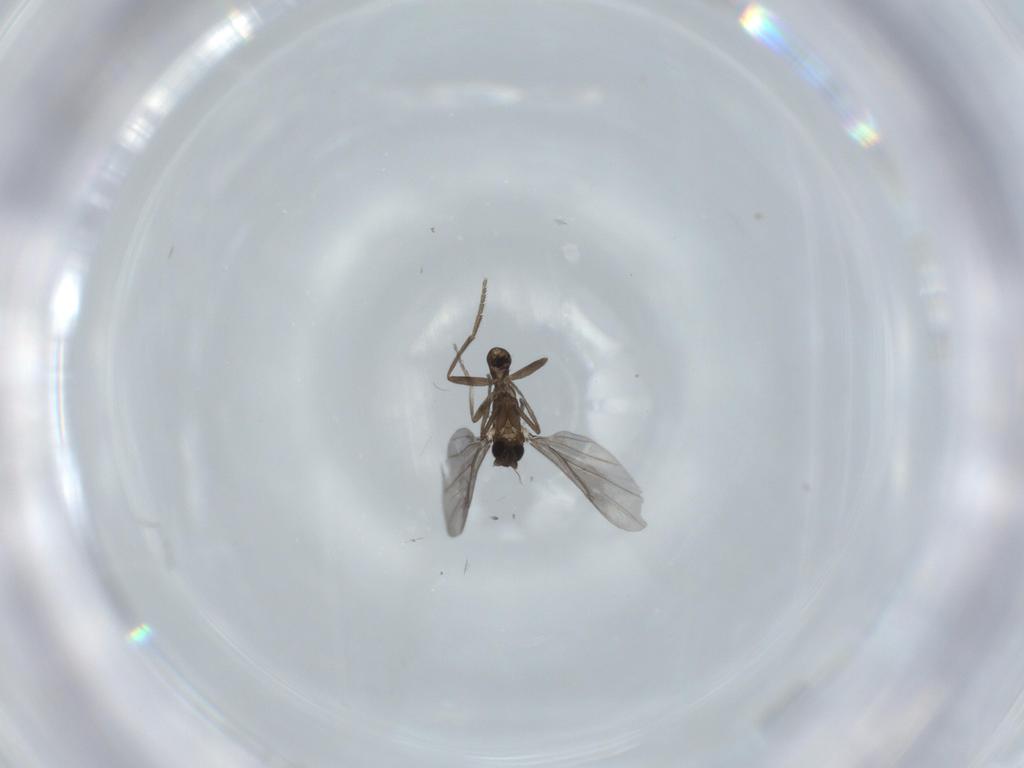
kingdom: Animalia
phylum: Arthropoda
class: Insecta
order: Diptera
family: Phoridae
